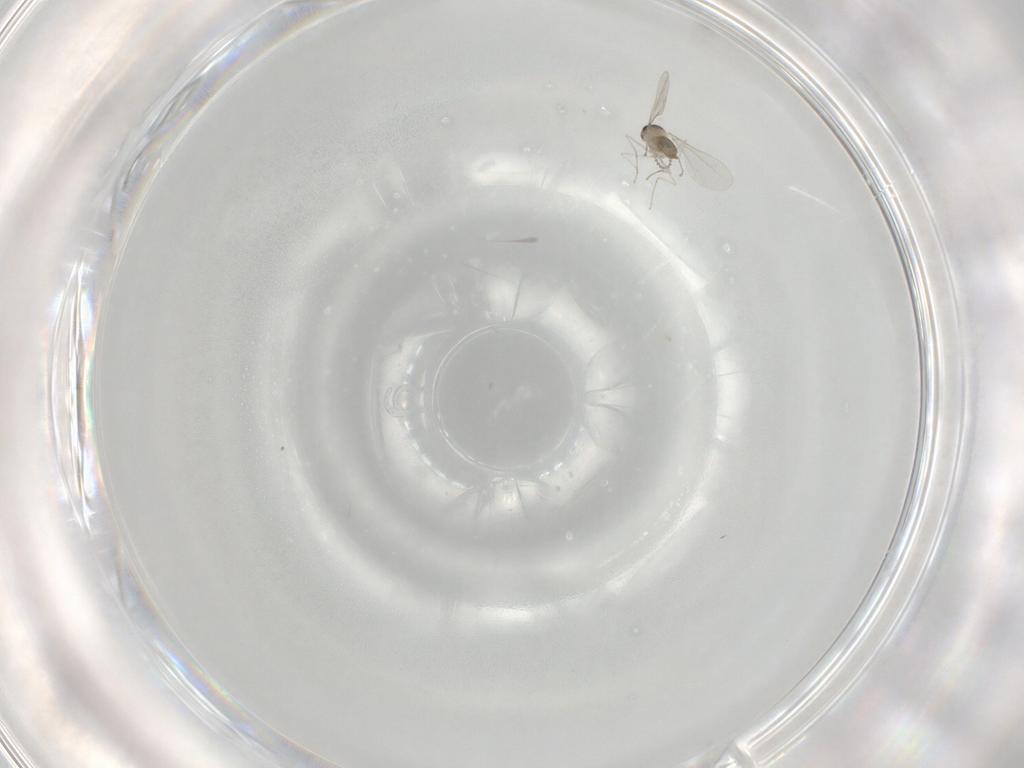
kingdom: Animalia
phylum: Arthropoda
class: Insecta
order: Diptera
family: Cecidomyiidae
